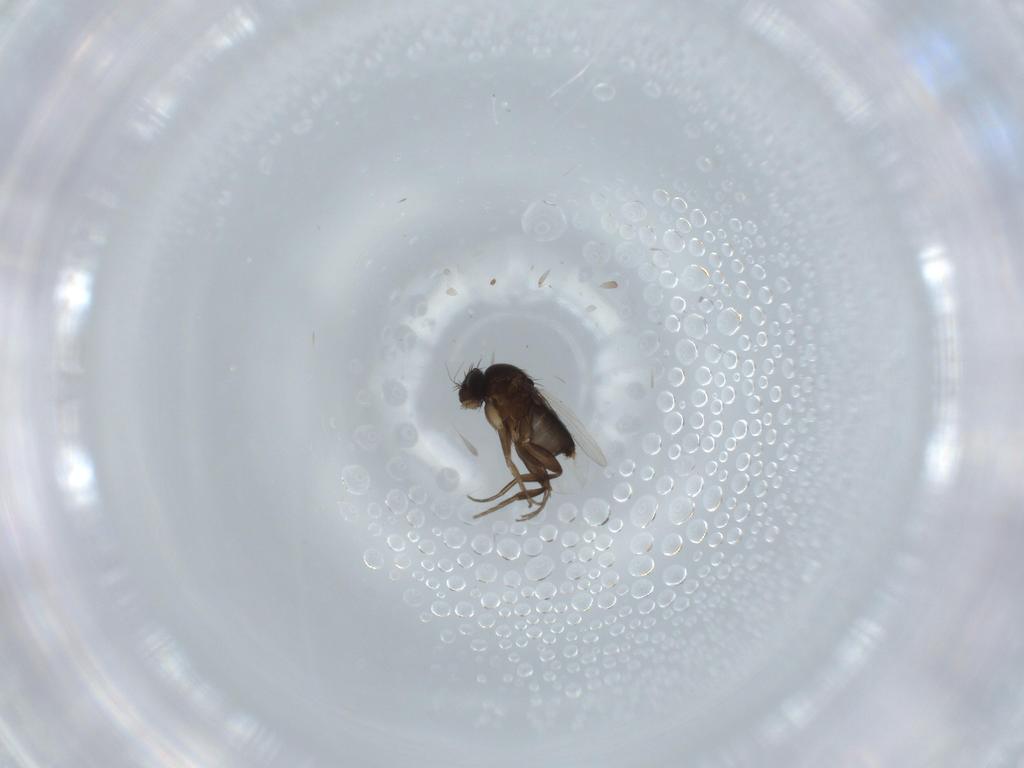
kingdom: Animalia
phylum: Arthropoda
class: Insecta
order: Diptera
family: Phoridae
